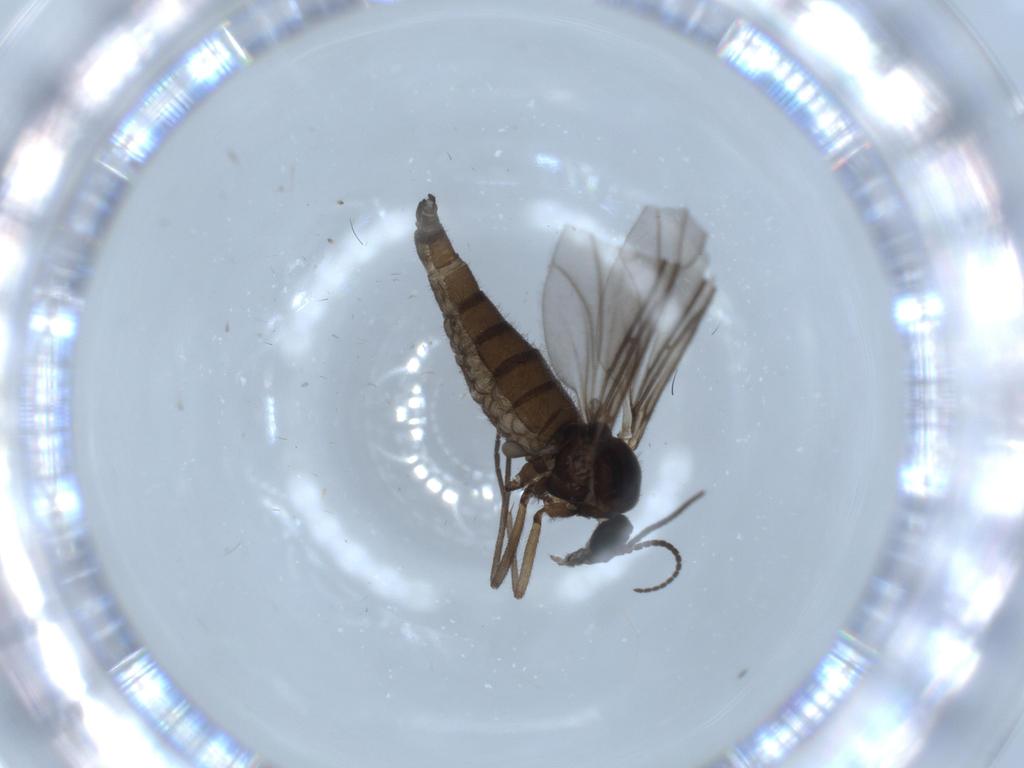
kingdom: Animalia
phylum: Arthropoda
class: Insecta
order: Diptera
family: Sciaridae
